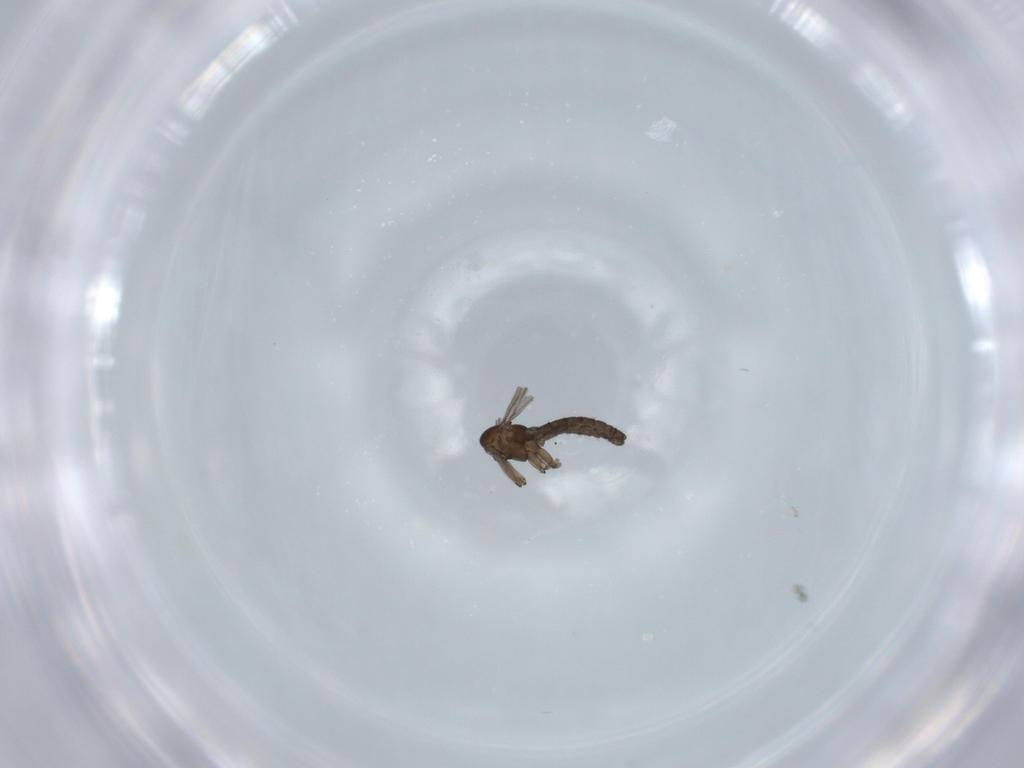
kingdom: Animalia
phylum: Arthropoda
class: Insecta
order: Diptera
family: Sciaridae
